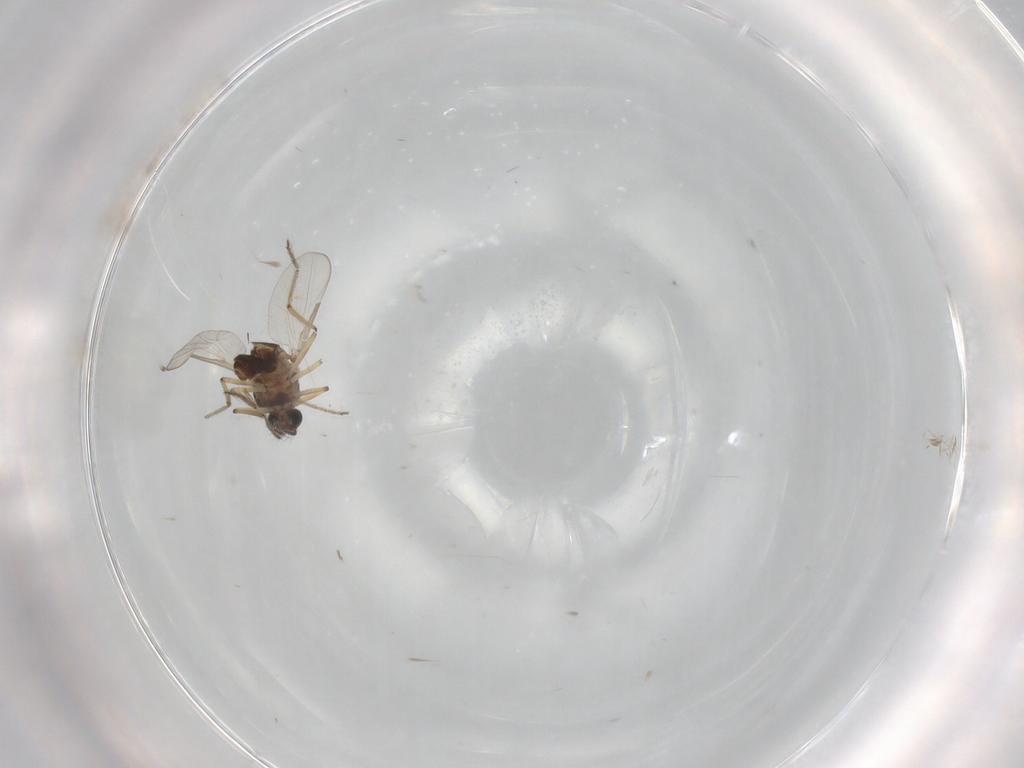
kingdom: Animalia
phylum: Arthropoda
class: Insecta
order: Diptera
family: Ceratopogonidae
